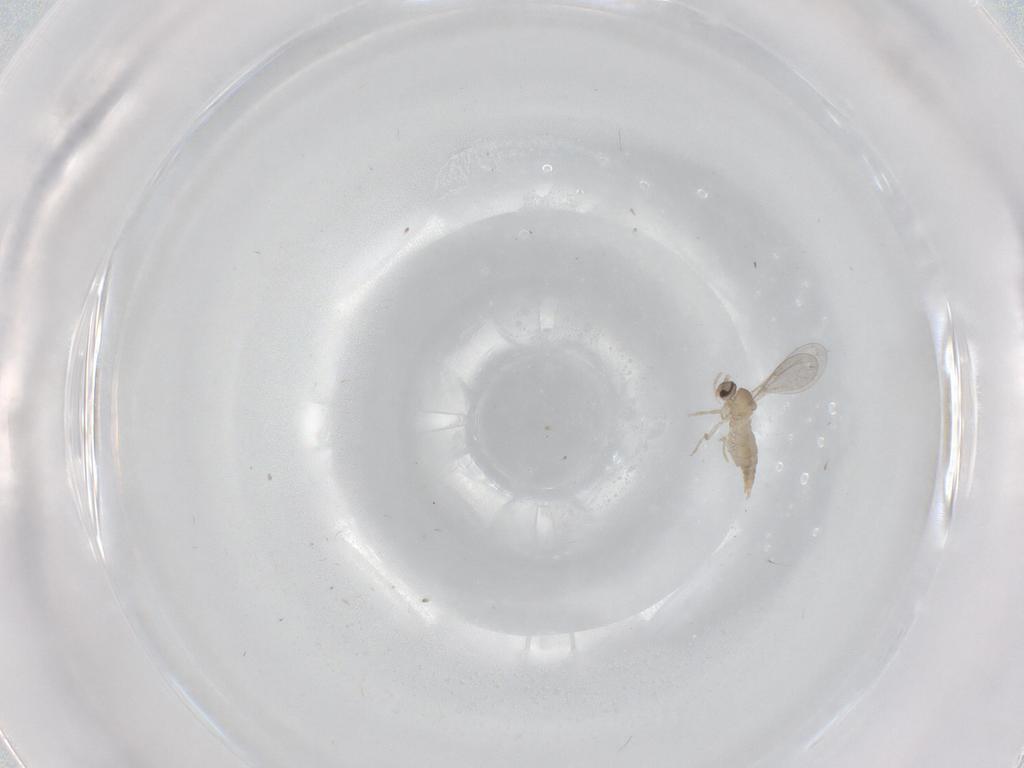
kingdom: Animalia
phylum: Arthropoda
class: Insecta
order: Diptera
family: Cecidomyiidae
